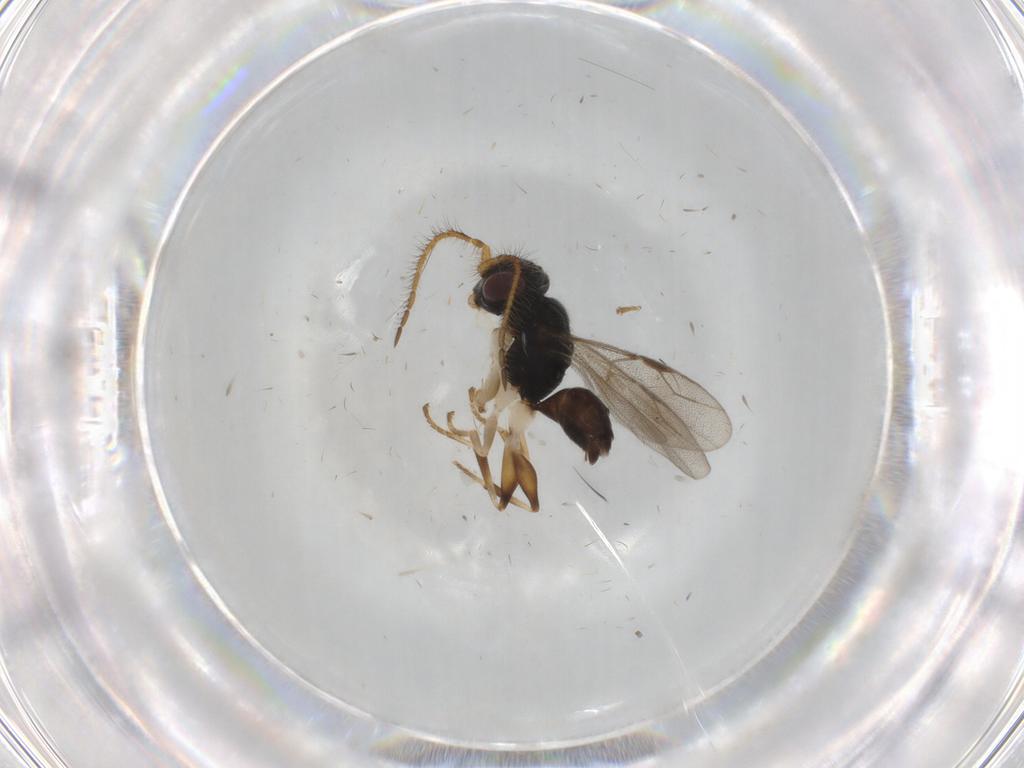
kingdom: Animalia
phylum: Arthropoda
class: Insecta
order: Hymenoptera
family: Dryinidae
